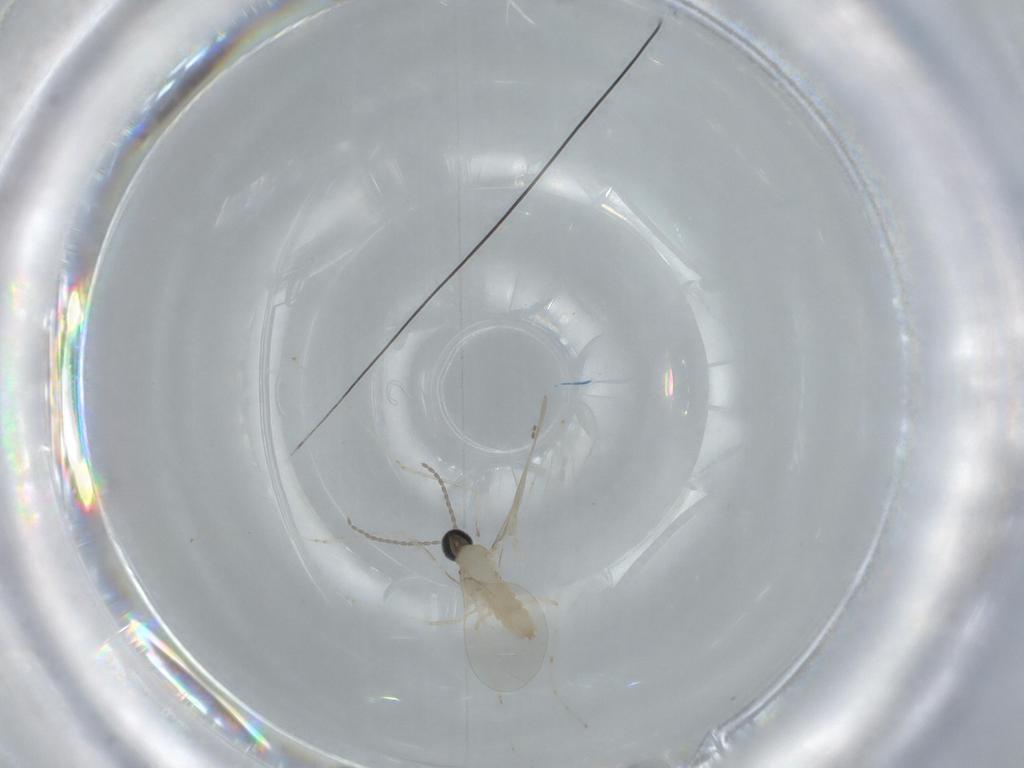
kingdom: Animalia
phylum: Arthropoda
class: Insecta
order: Diptera
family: Cecidomyiidae
